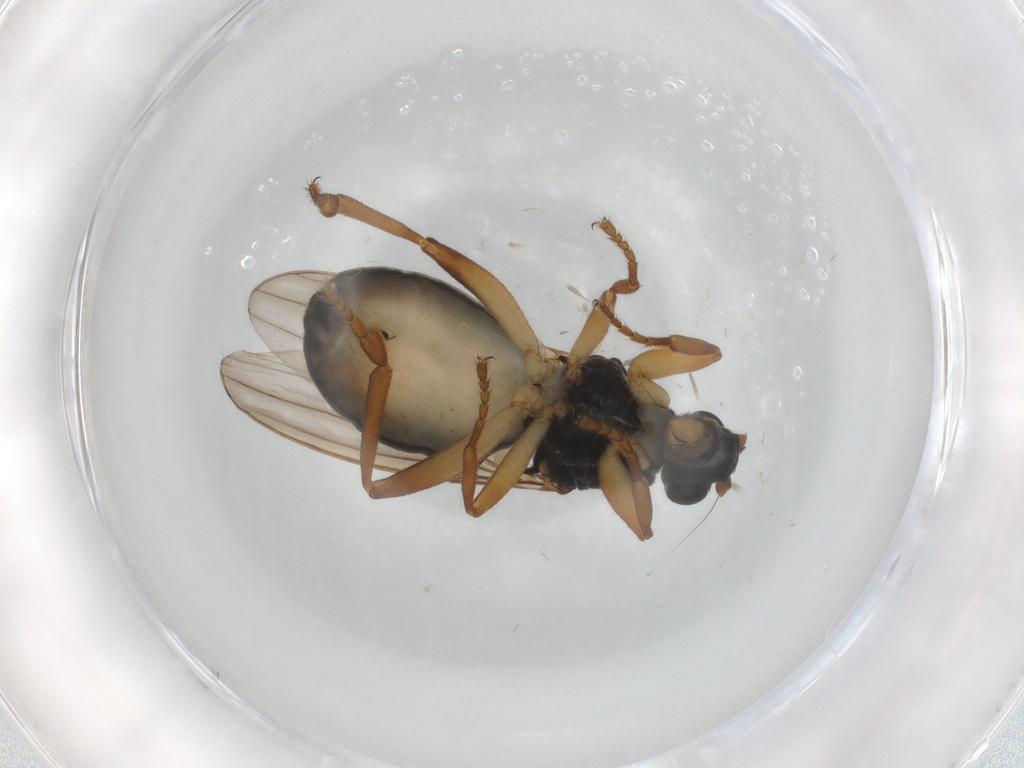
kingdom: Animalia
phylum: Arthropoda
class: Insecta
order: Diptera
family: Sphaeroceridae
